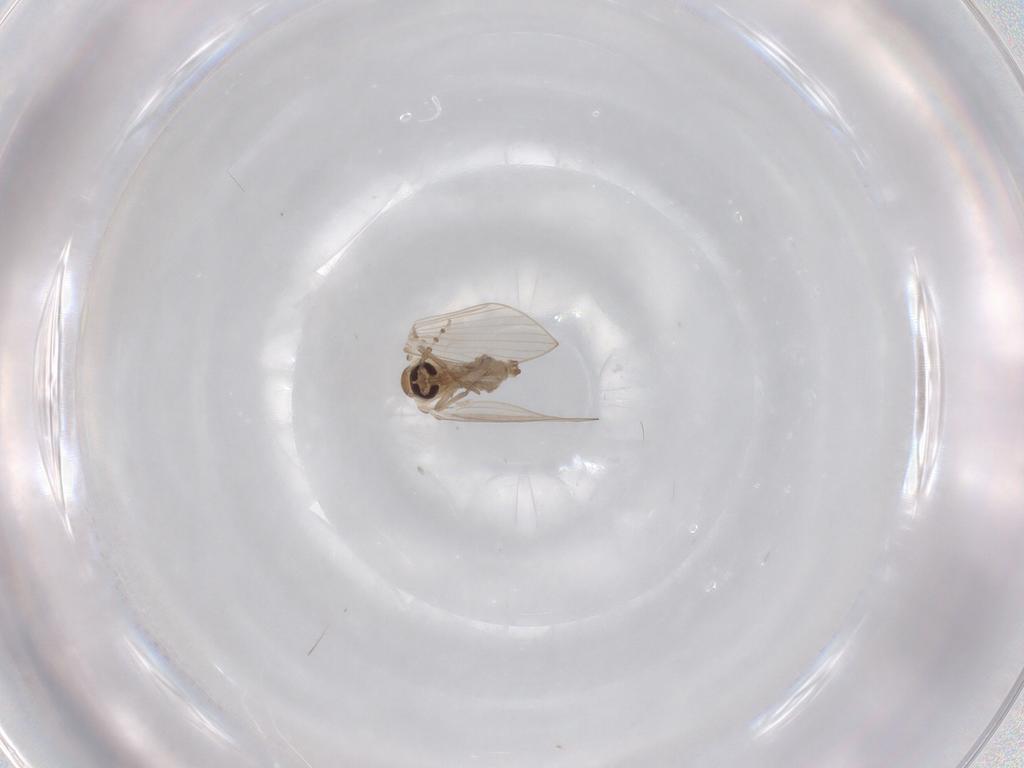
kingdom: Animalia
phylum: Arthropoda
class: Insecta
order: Diptera
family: Psychodidae
